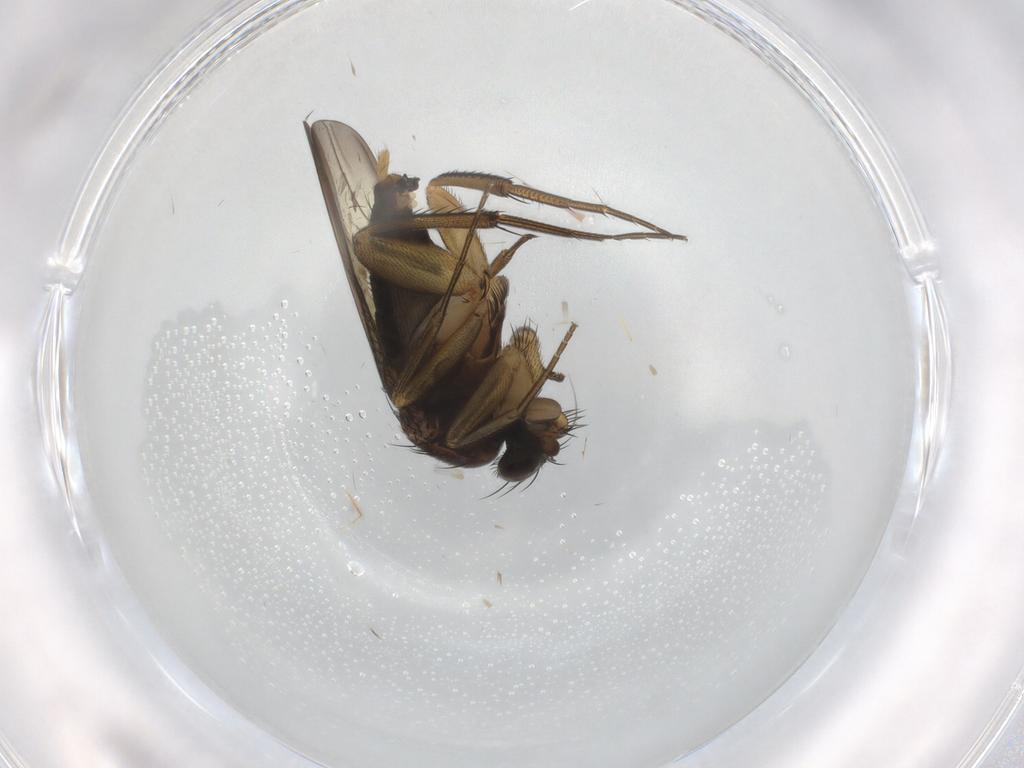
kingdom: Animalia
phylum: Arthropoda
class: Insecta
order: Diptera
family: Phoridae
